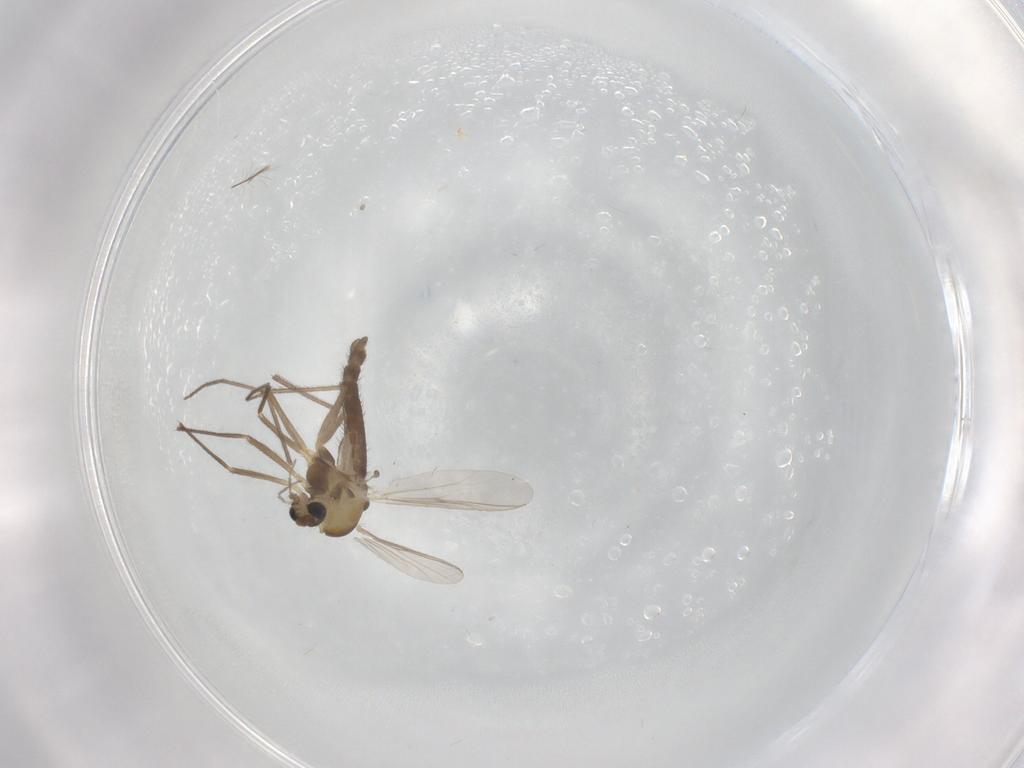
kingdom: Animalia
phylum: Arthropoda
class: Insecta
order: Diptera
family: Chironomidae
